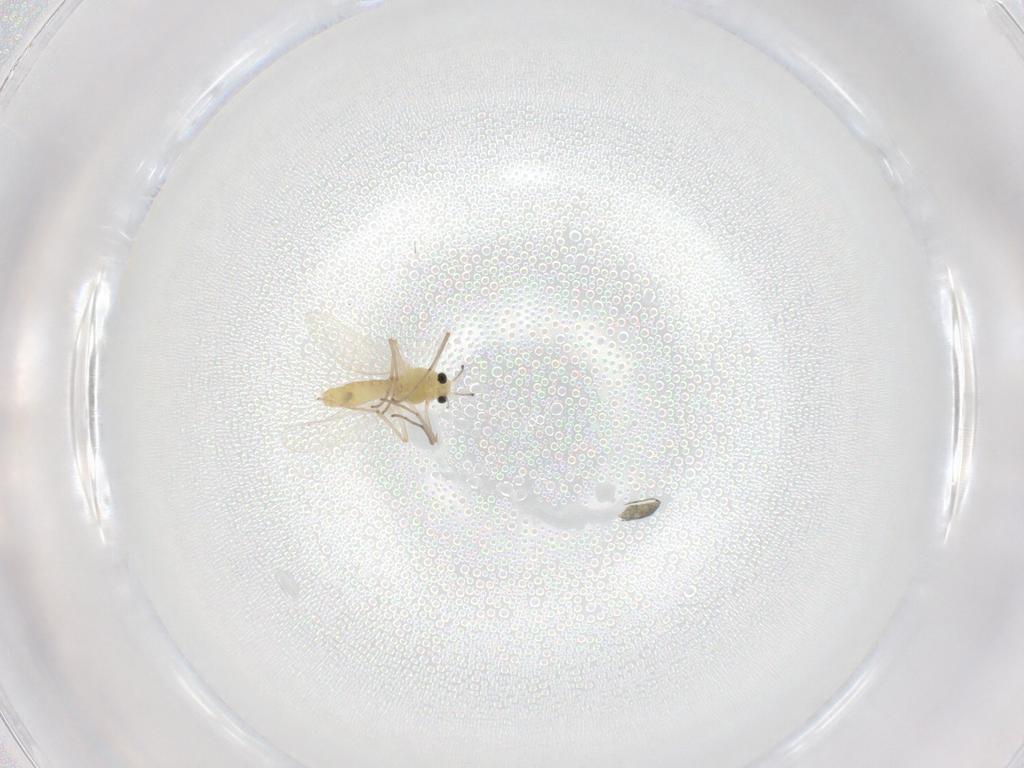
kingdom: Animalia
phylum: Arthropoda
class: Insecta
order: Diptera
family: Chironomidae
